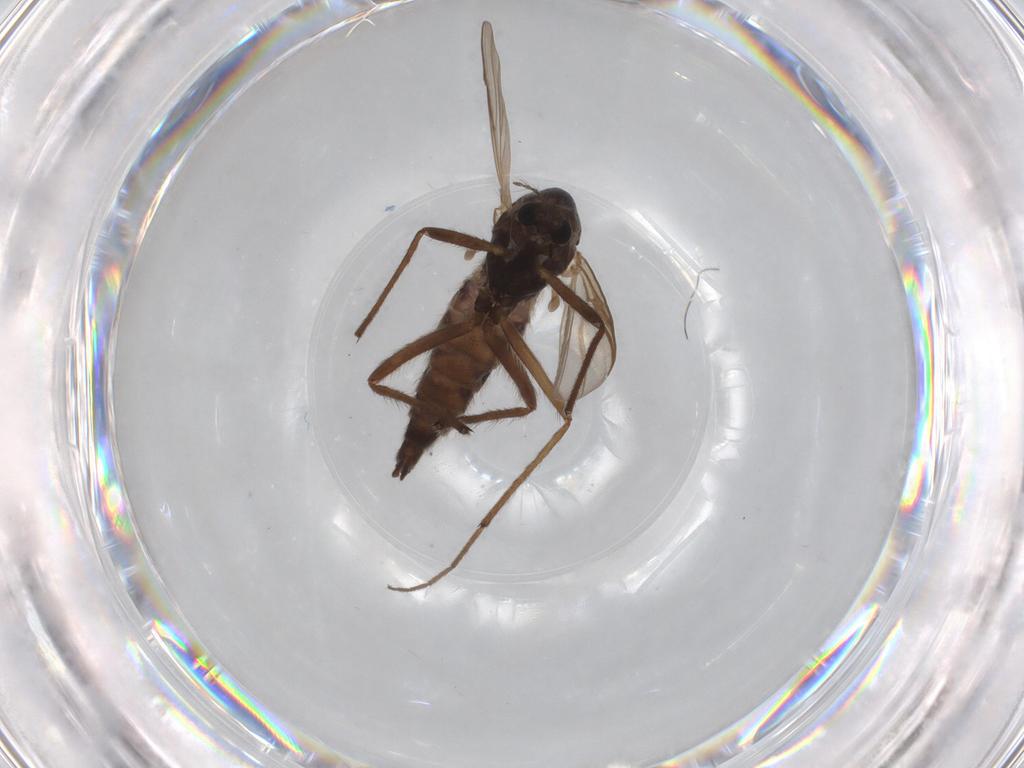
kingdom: Animalia
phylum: Arthropoda
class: Insecta
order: Diptera
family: Chironomidae
